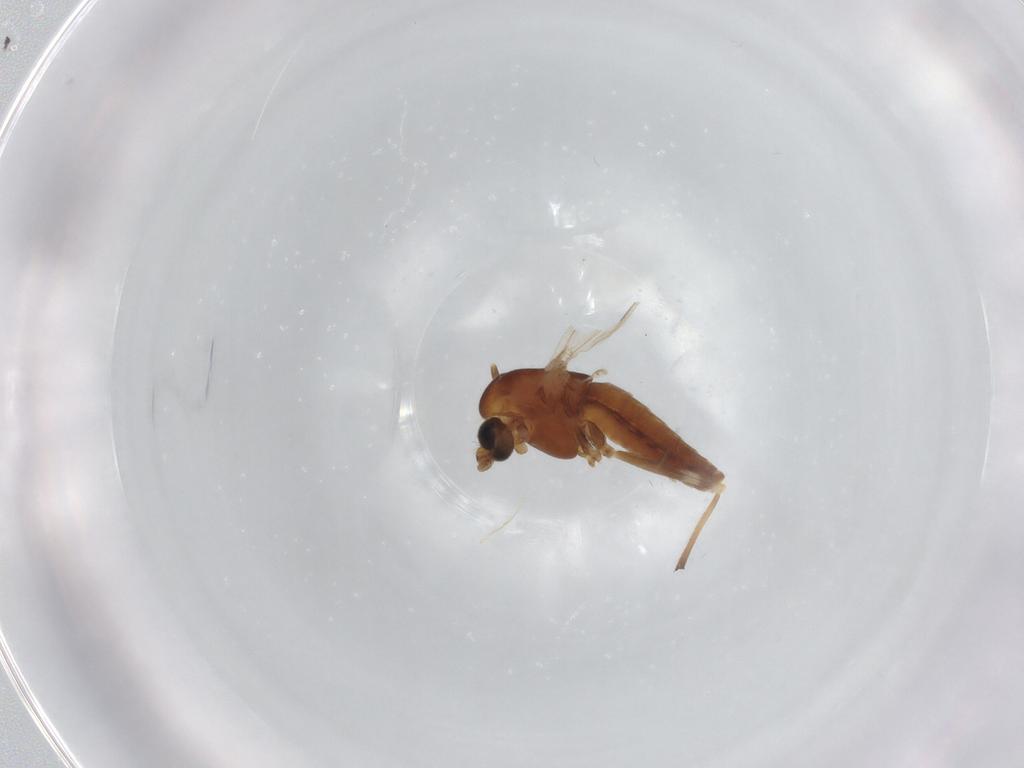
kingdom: Animalia
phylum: Arthropoda
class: Insecta
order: Diptera
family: Chironomidae
